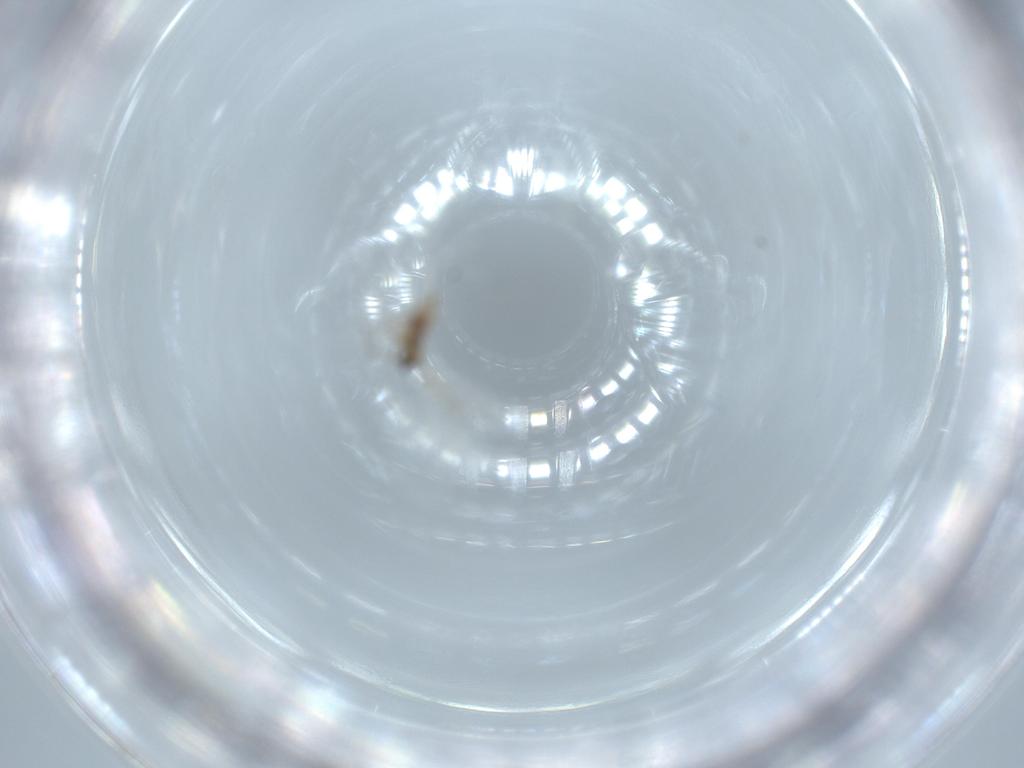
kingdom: Animalia
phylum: Arthropoda
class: Insecta
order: Diptera
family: Cecidomyiidae
